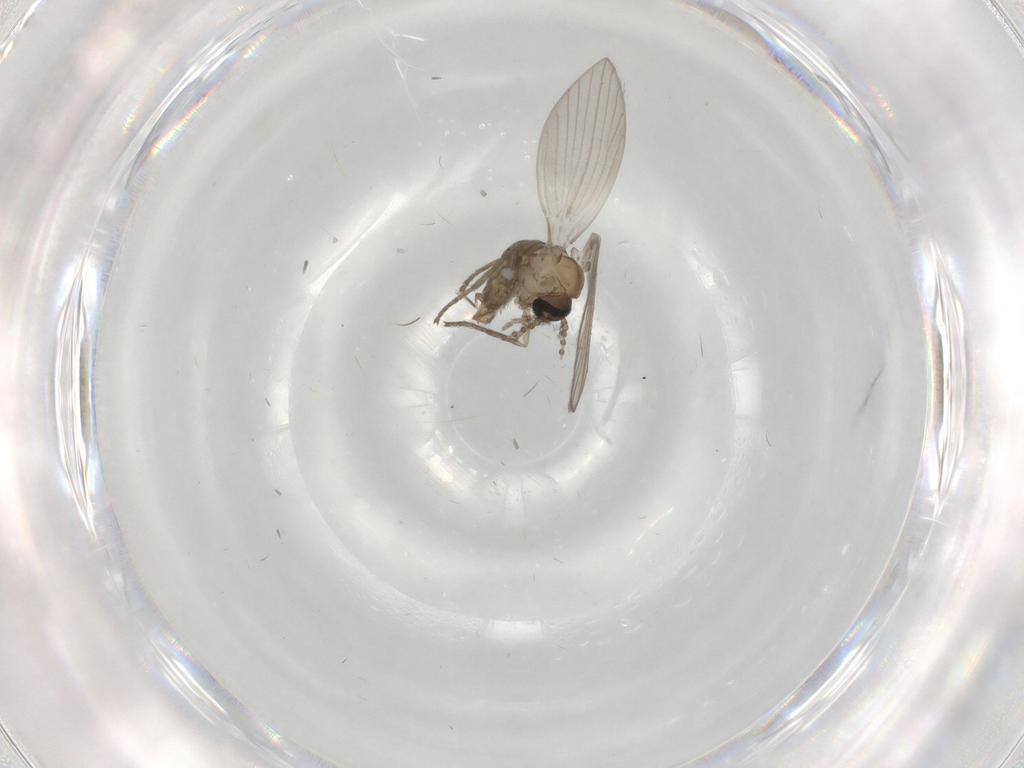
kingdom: Animalia
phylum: Arthropoda
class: Insecta
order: Diptera
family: Psychodidae
